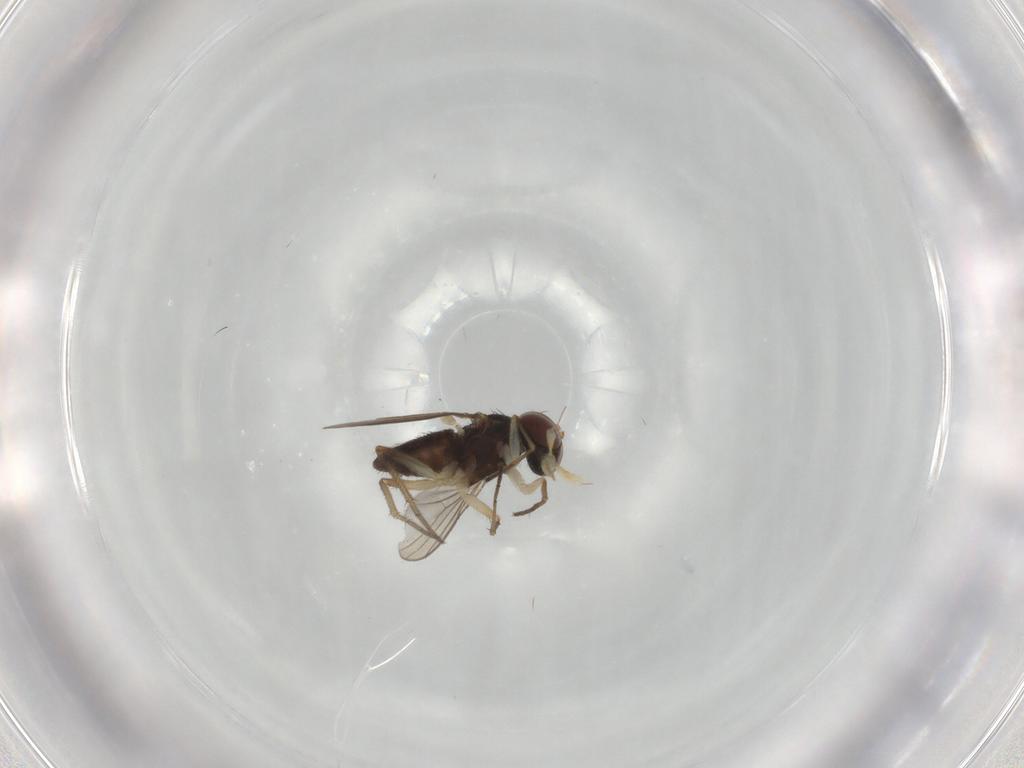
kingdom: Animalia
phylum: Arthropoda
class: Insecta
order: Diptera
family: Dolichopodidae
